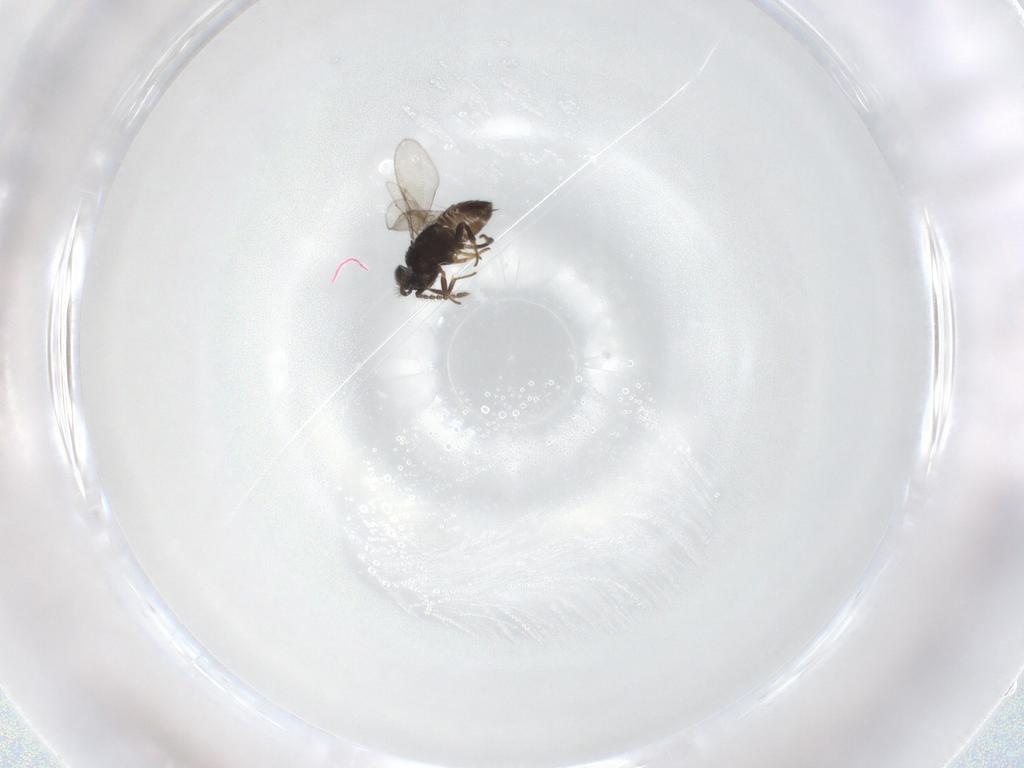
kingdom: Animalia
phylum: Arthropoda
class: Insecta
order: Hymenoptera
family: Encyrtidae
